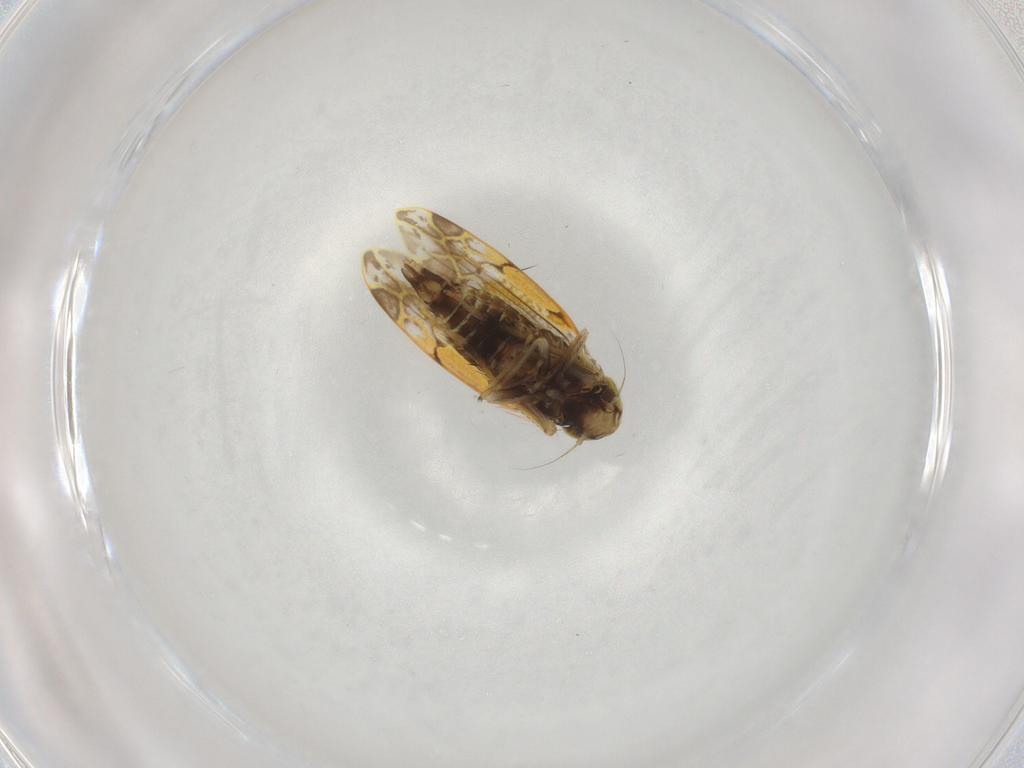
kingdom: Animalia
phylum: Arthropoda
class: Insecta
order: Hemiptera
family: Cicadellidae
